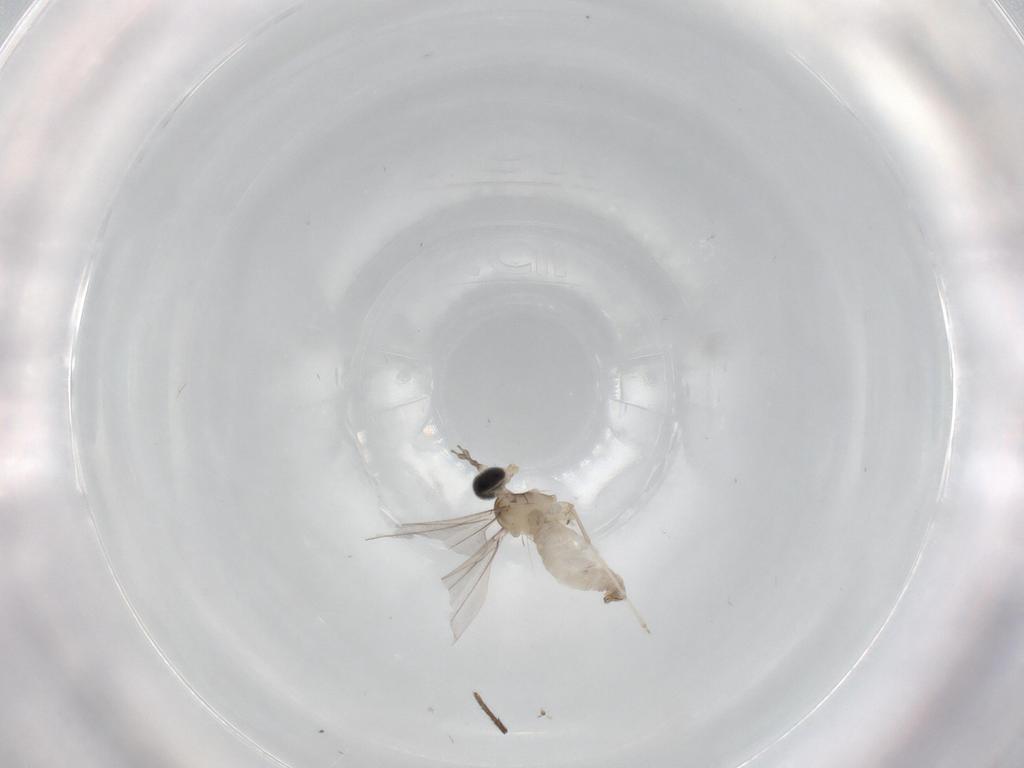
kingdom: Animalia
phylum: Arthropoda
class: Insecta
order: Diptera
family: Cecidomyiidae
